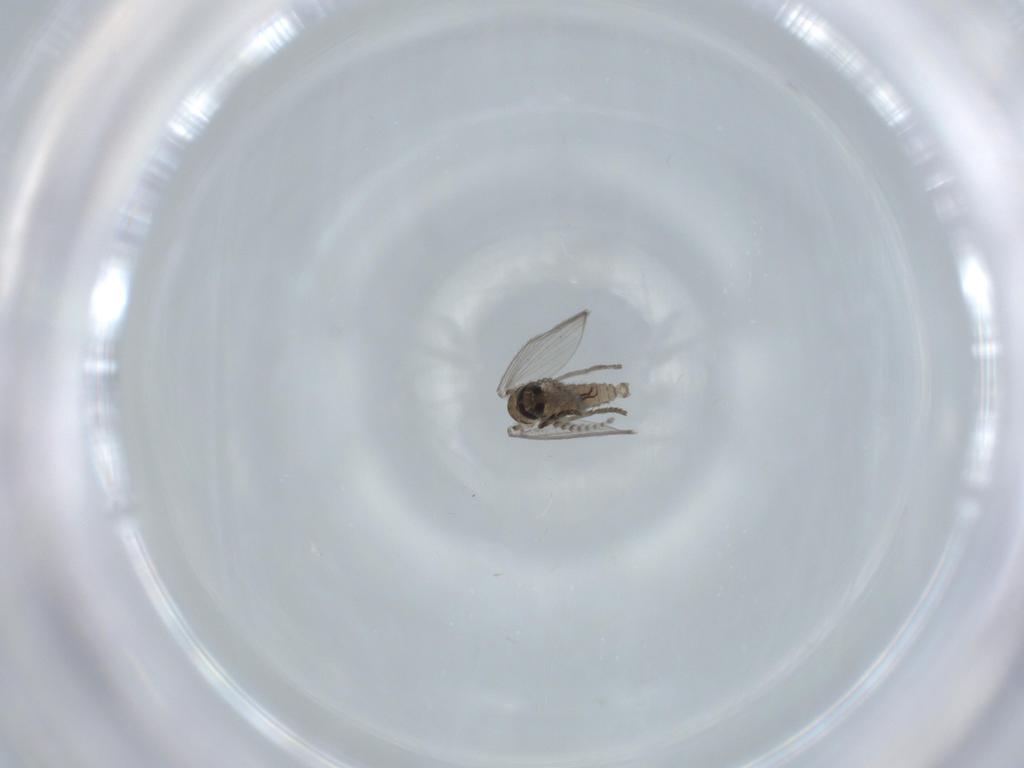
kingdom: Animalia
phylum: Arthropoda
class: Insecta
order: Diptera
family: Psychodidae
